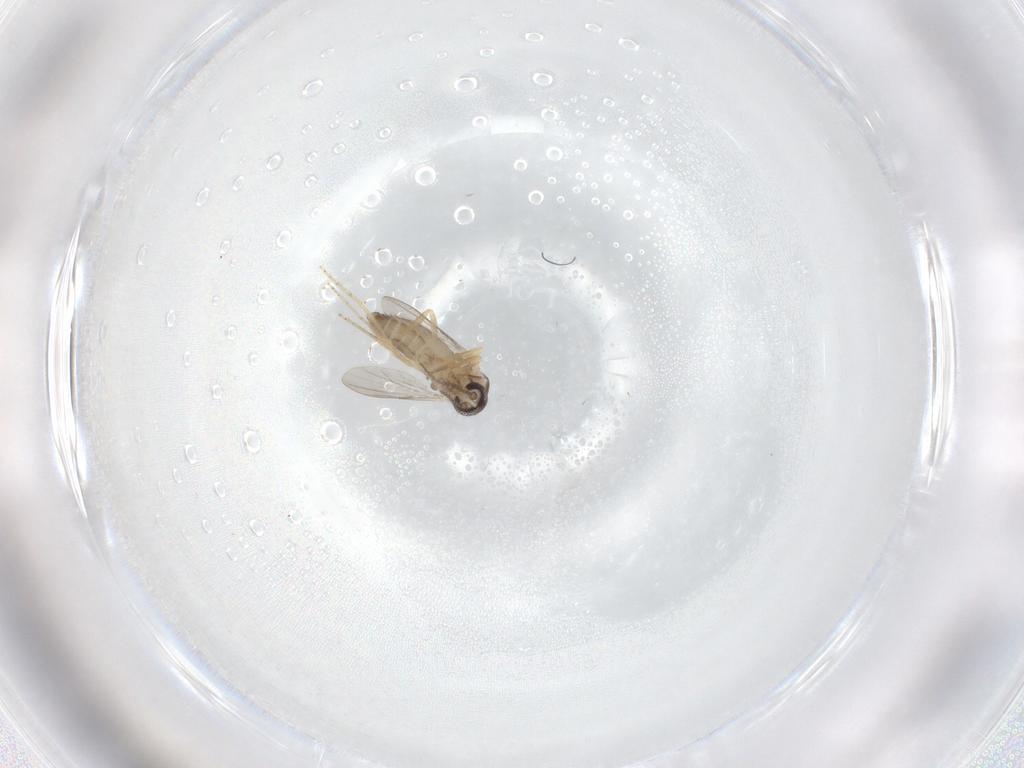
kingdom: Animalia
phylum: Arthropoda
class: Insecta
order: Diptera
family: Ceratopogonidae
